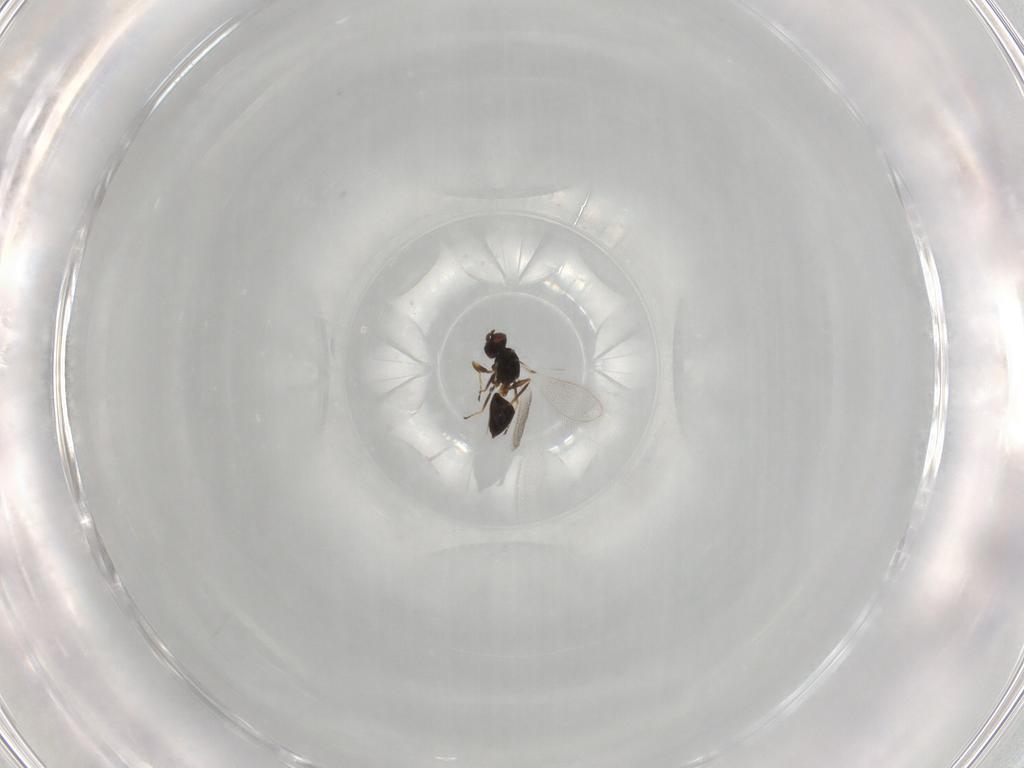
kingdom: Animalia
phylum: Arthropoda
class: Insecta
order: Hymenoptera
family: Mymaridae
